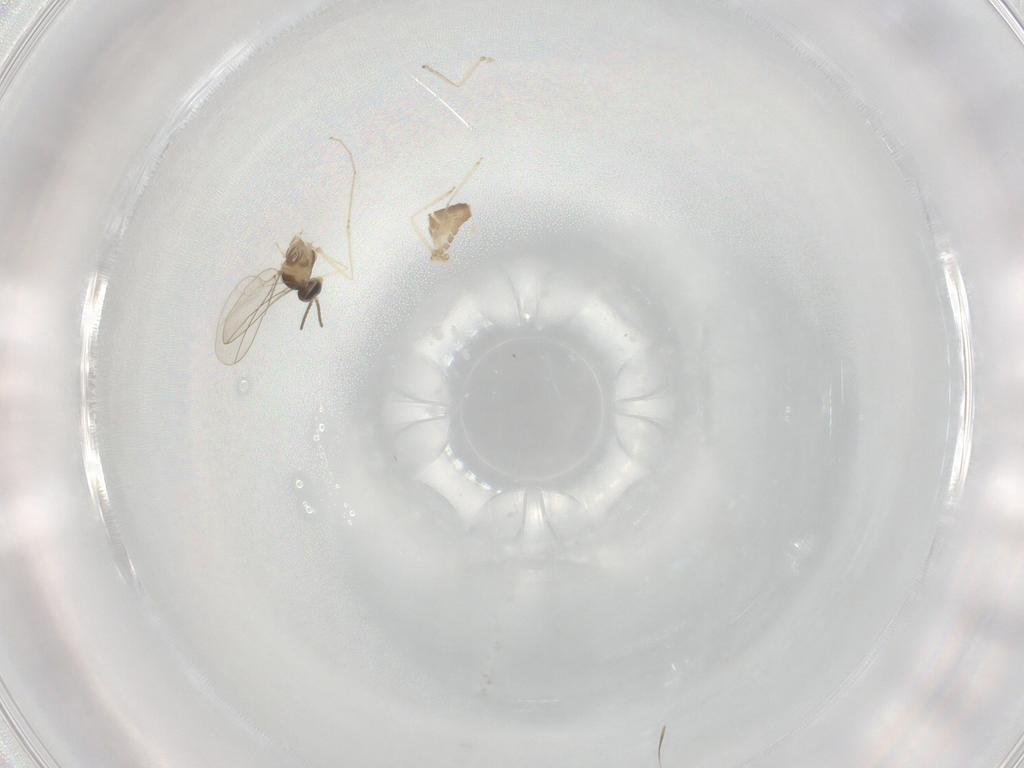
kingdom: Animalia
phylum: Arthropoda
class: Insecta
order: Diptera
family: Cecidomyiidae
